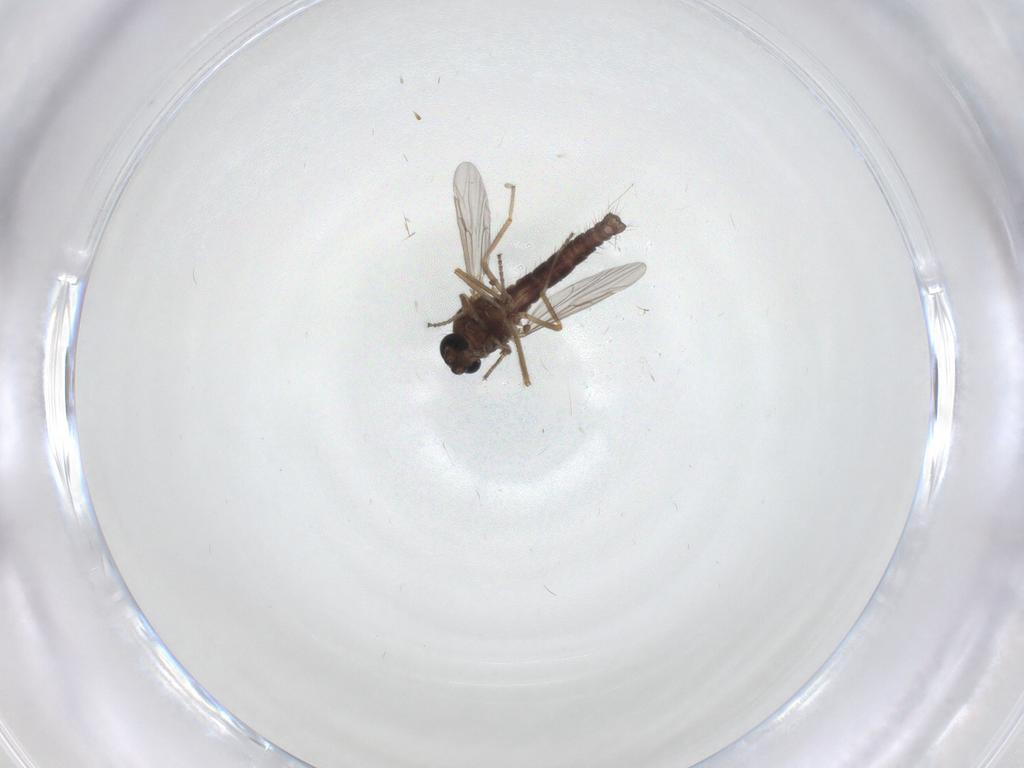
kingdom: Animalia
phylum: Arthropoda
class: Insecta
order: Diptera
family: Ceratopogonidae
